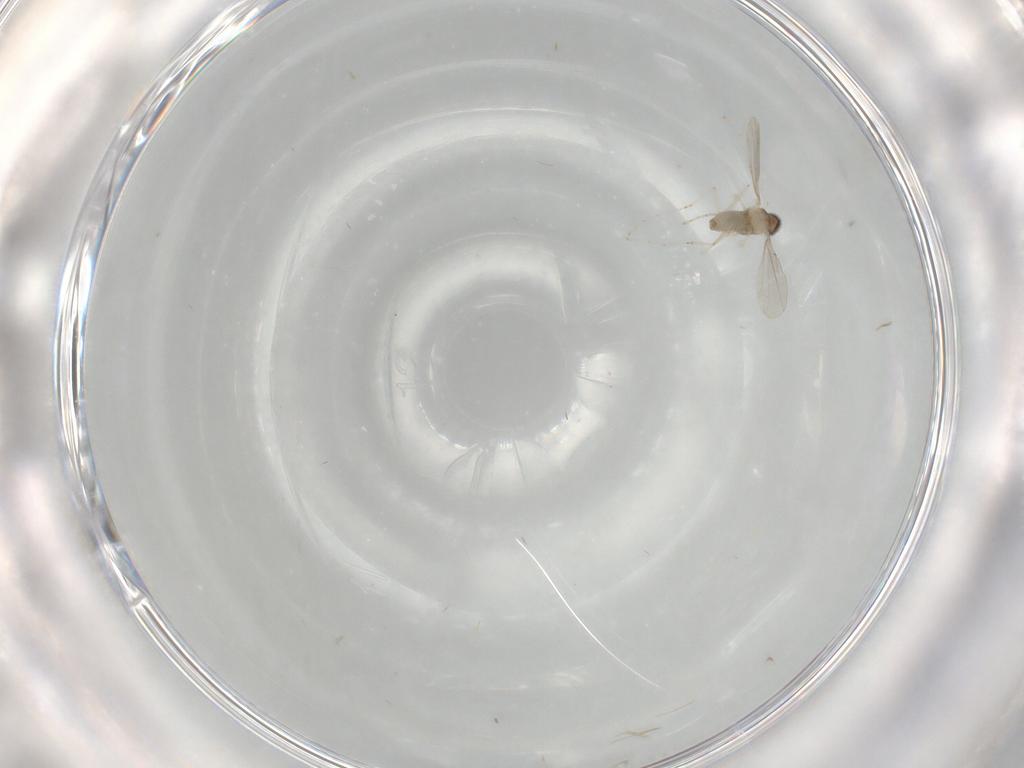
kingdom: Animalia
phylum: Arthropoda
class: Insecta
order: Diptera
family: Cecidomyiidae
